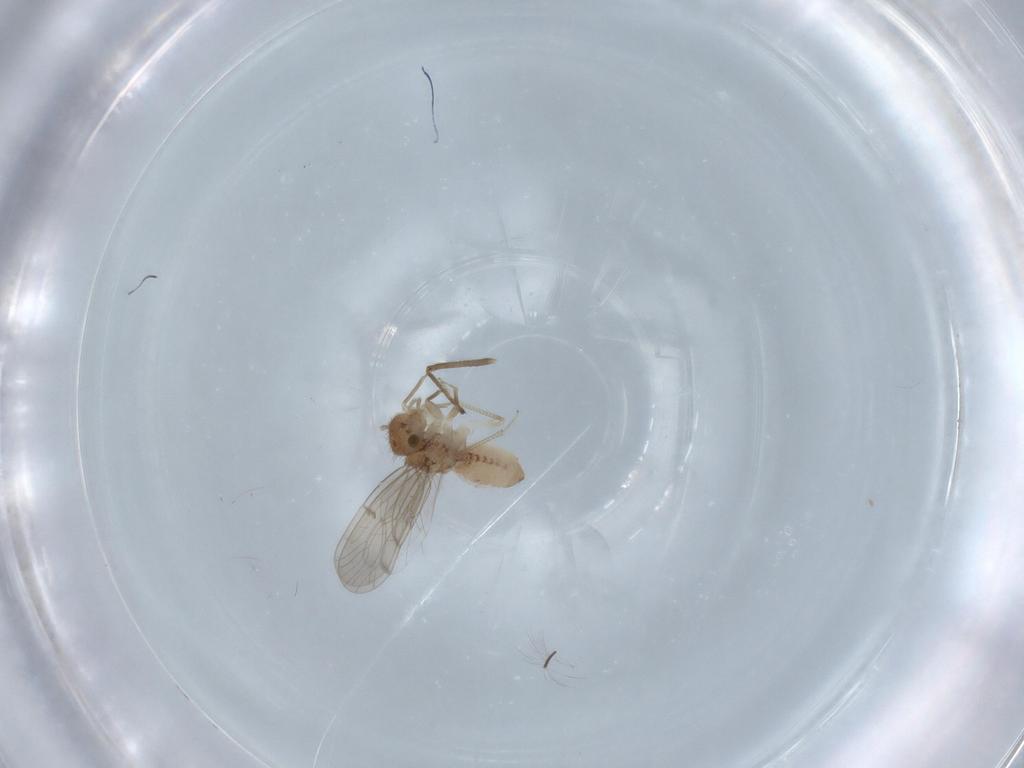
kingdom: Animalia
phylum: Arthropoda
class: Insecta
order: Psocodea
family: Ectopsocidae
